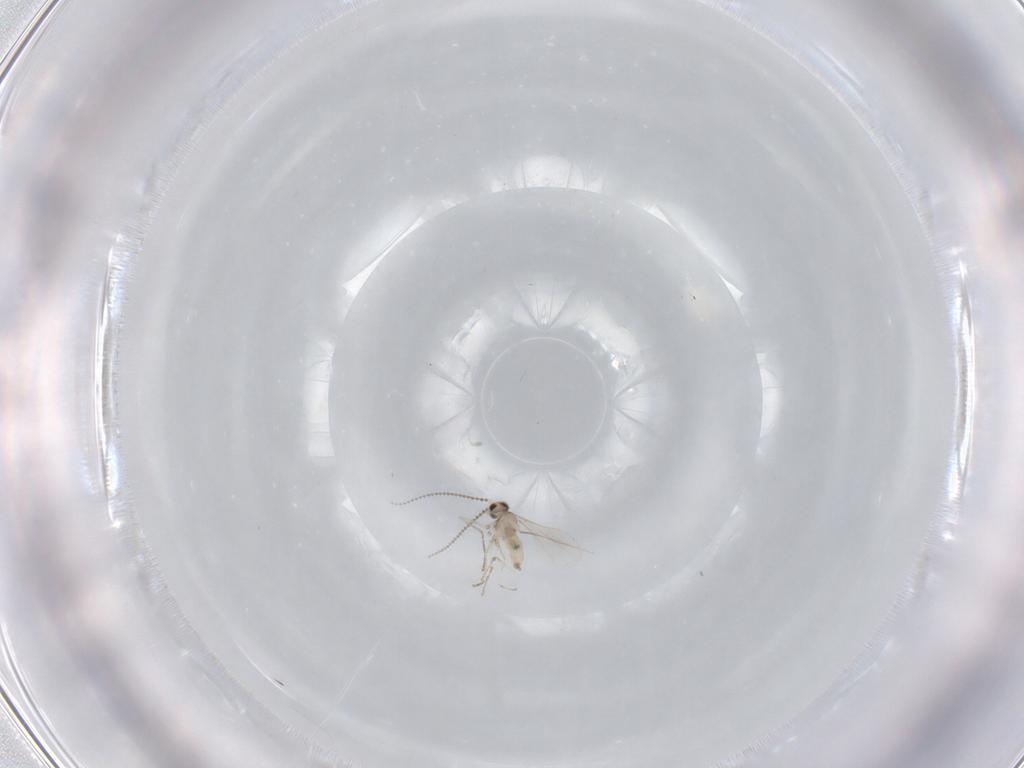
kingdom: Animalia
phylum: Arthropoda
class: Insecta
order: Diptera
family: Cecidomyiidae
